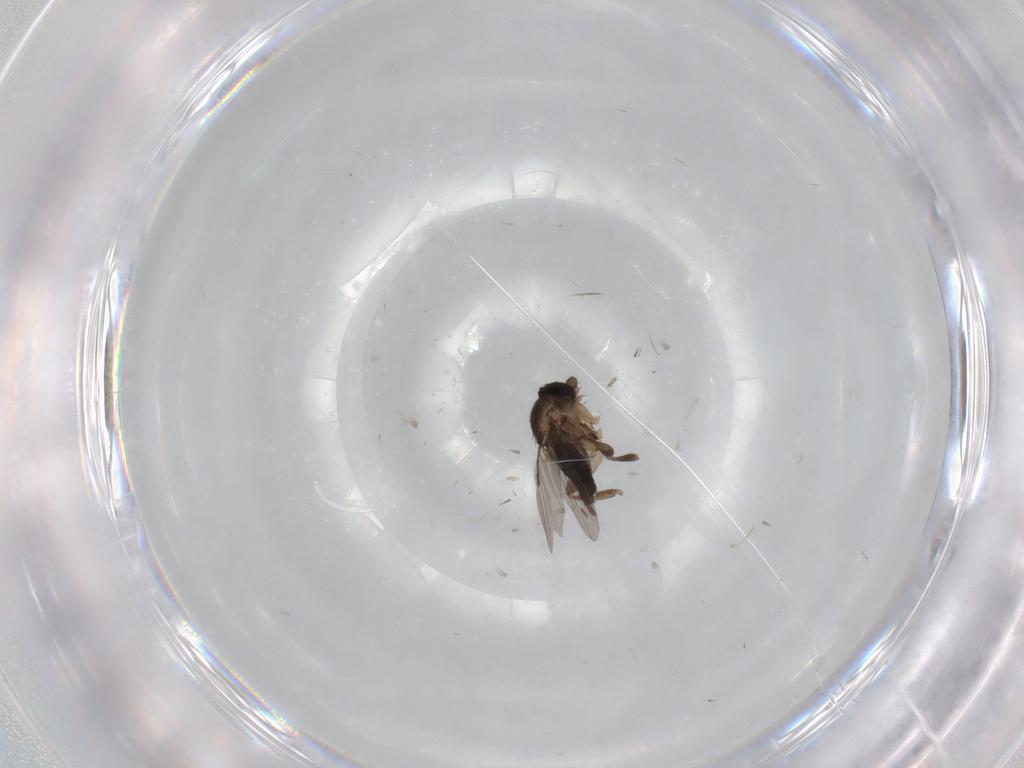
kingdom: Animalia
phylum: Arthropoda
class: Insecta
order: Diptera
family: Phoridae
